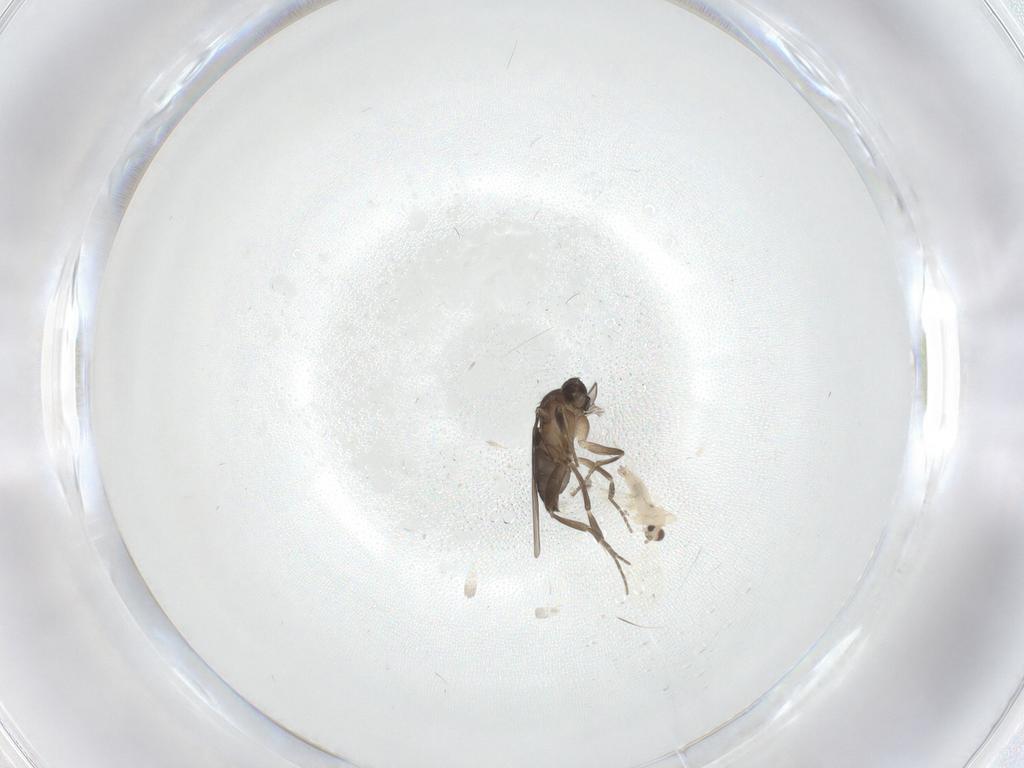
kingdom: Animalia
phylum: Arthropoda
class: Insecta
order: Diptera
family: Cecidomyiidae
